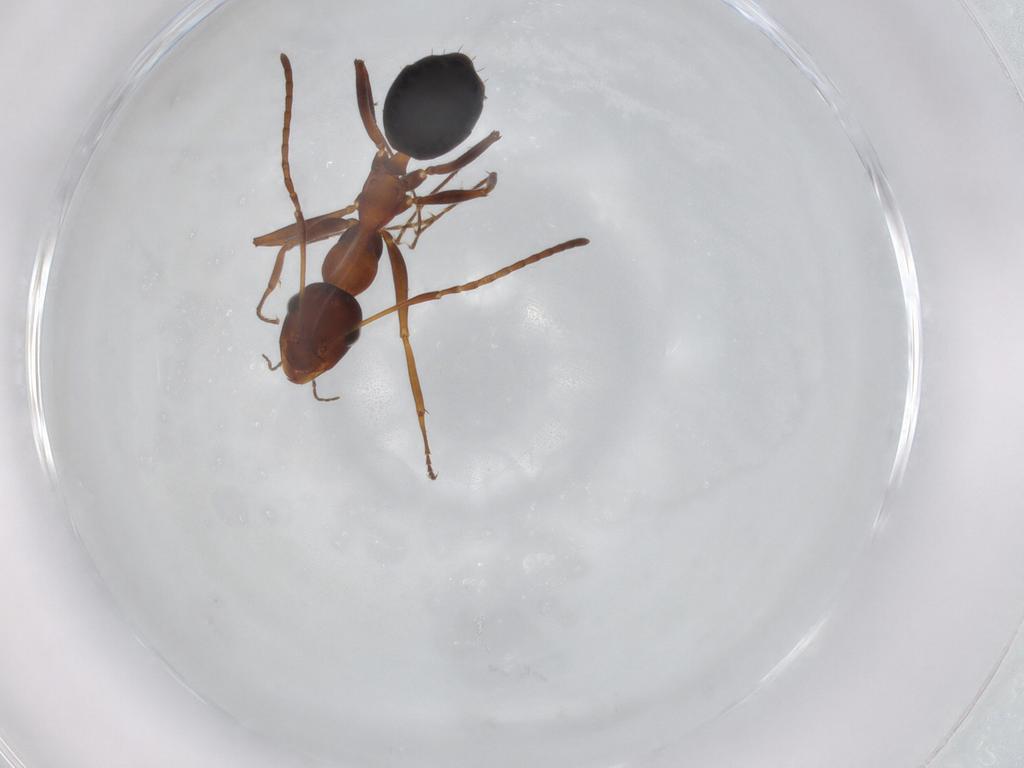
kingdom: Animalia
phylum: Arthropoda
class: Insecta
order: Hymenoptera
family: Formicidae
